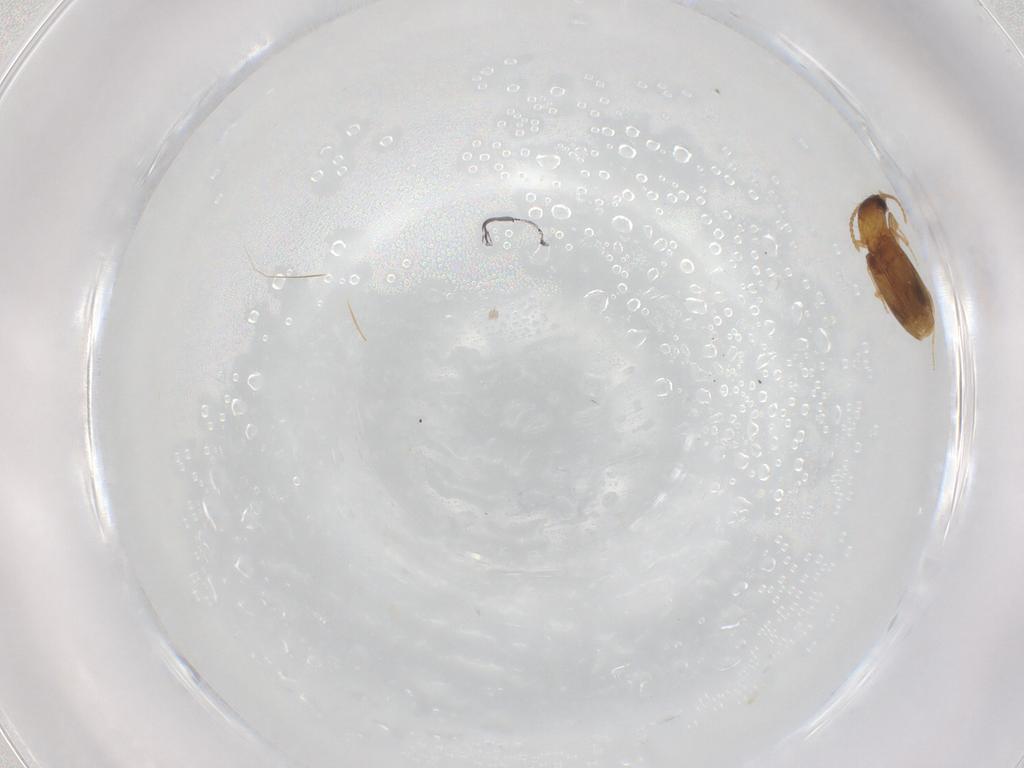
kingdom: Animalia
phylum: Arthropoda
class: Insecta
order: Coleoptera
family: Carabidae
